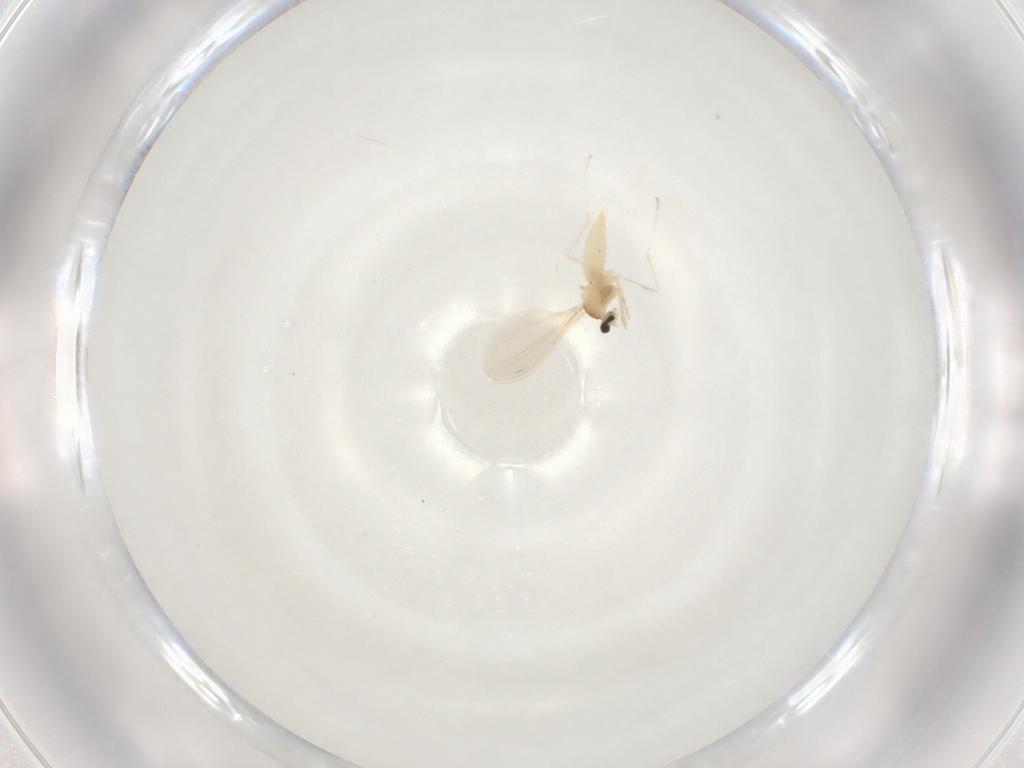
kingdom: Animalia
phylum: Arthropoda
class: Insecta
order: Diptera
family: Cecidomyiidae
